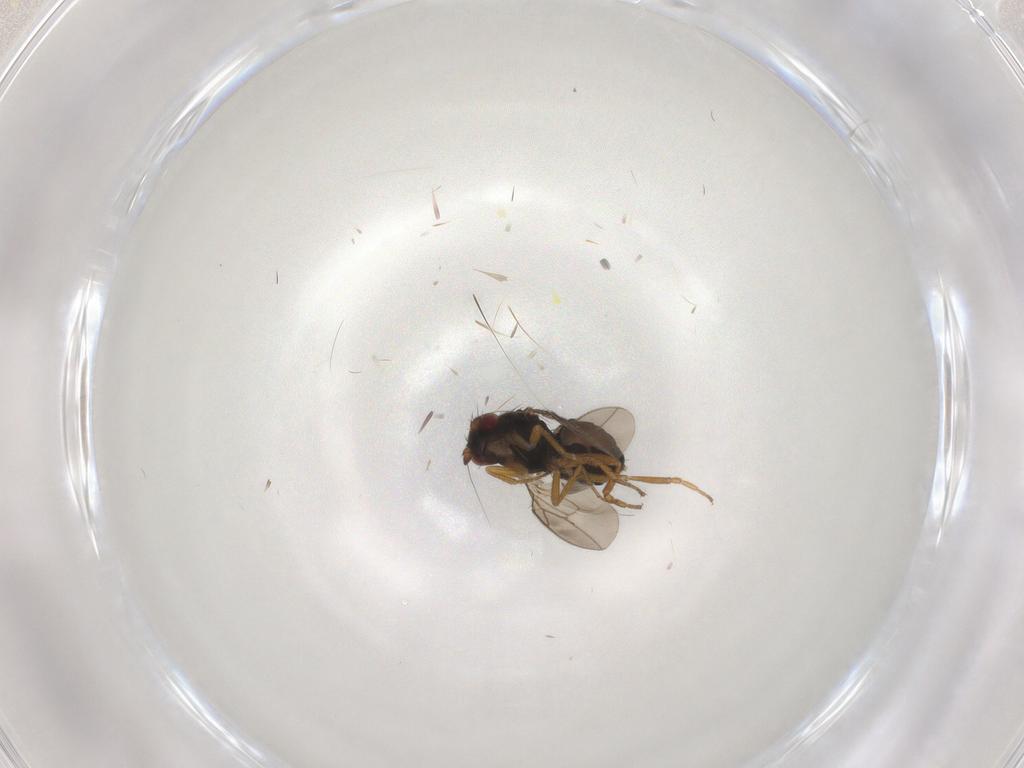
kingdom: Animalia
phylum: Arthropoda
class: Insecta
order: Diptera
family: Sphaeroceridae
